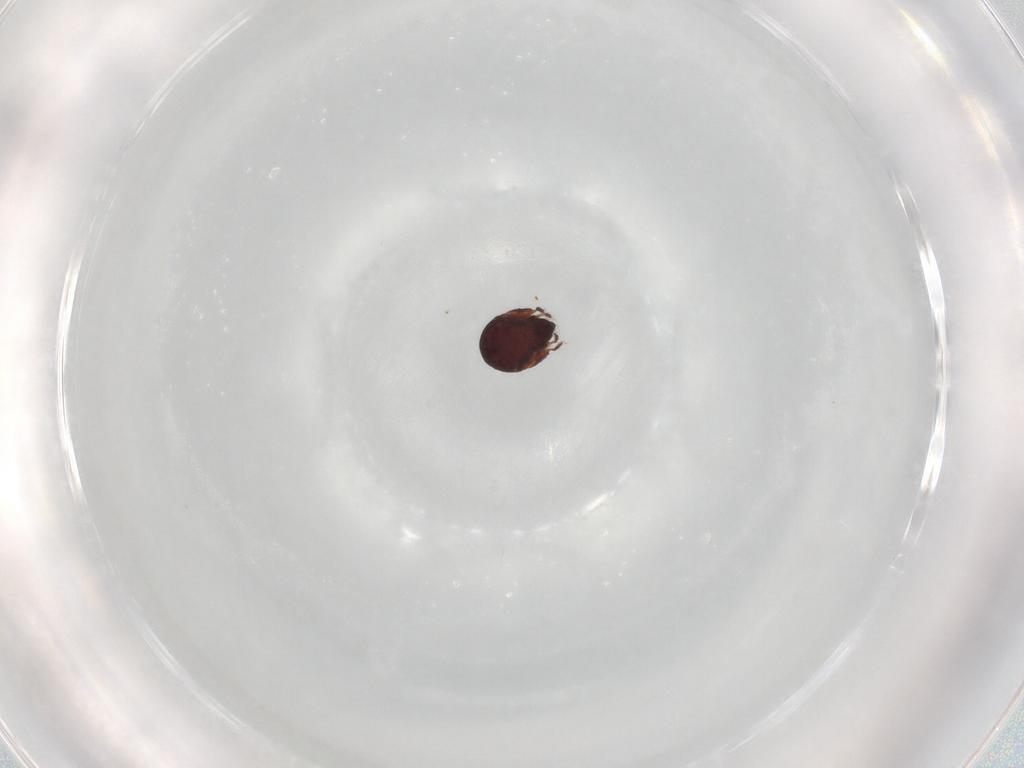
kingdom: Animalia
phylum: Arthropoda
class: Arachnida
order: Sarcoptiformes
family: Humerobatidae
